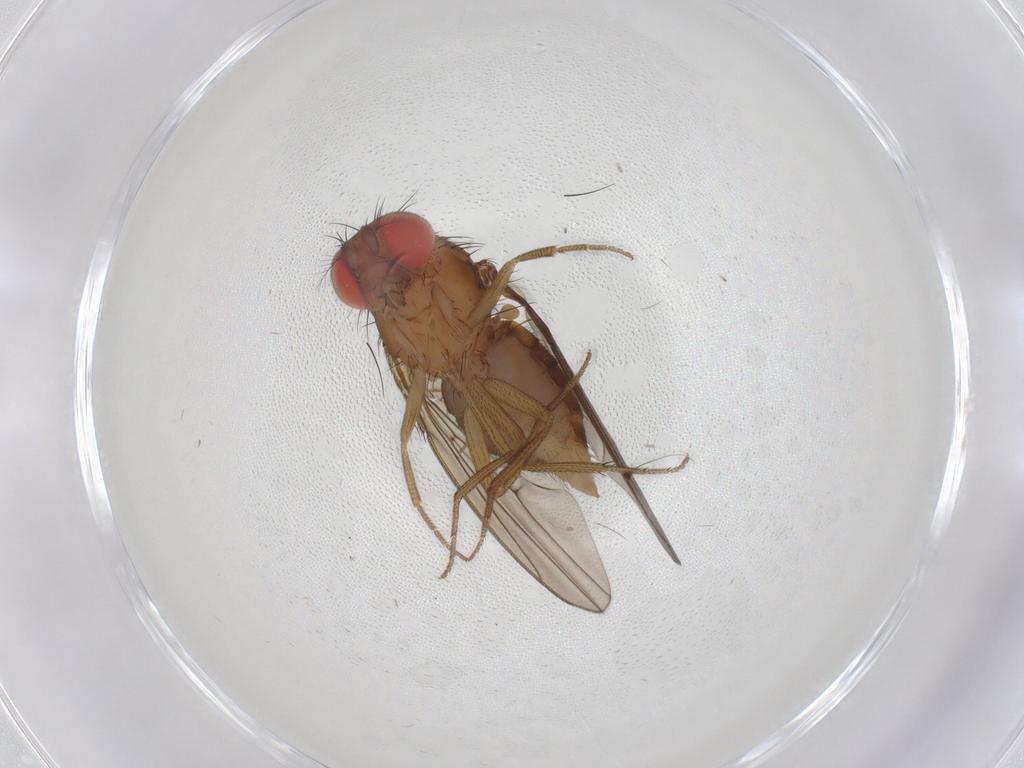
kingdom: Animalia
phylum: Arthropoda
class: Insecta
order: Diptera
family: Drosophilidae
